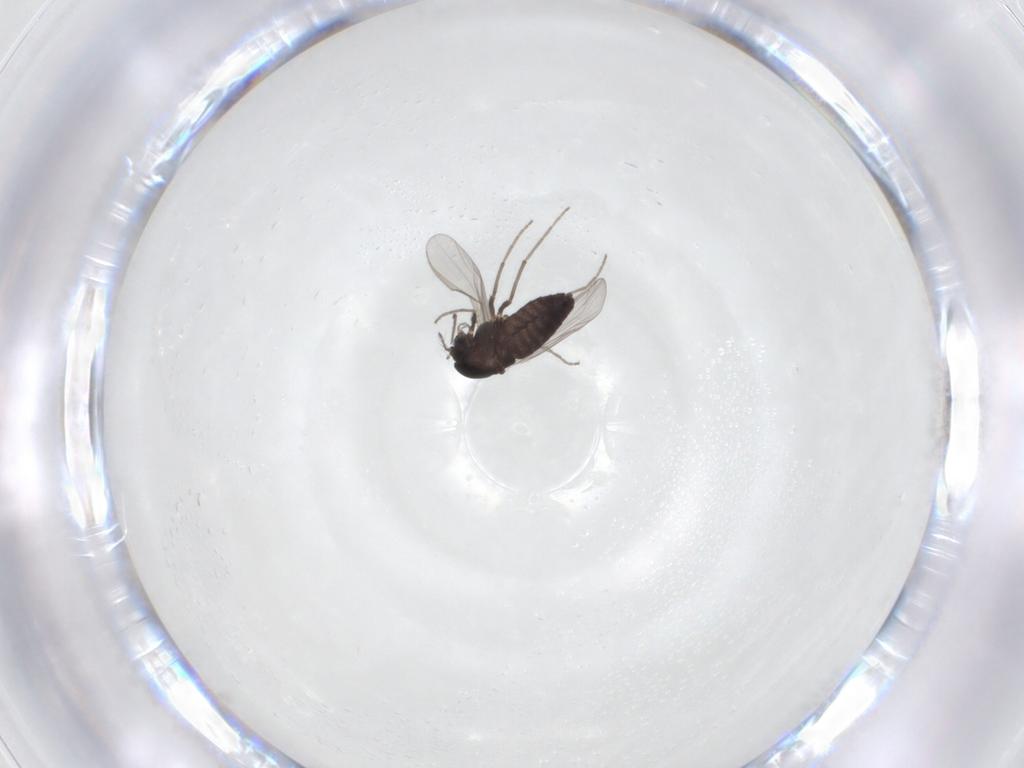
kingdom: Animalia
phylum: Arthropoda
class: Insecta
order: Diptera
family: Chironomidae
